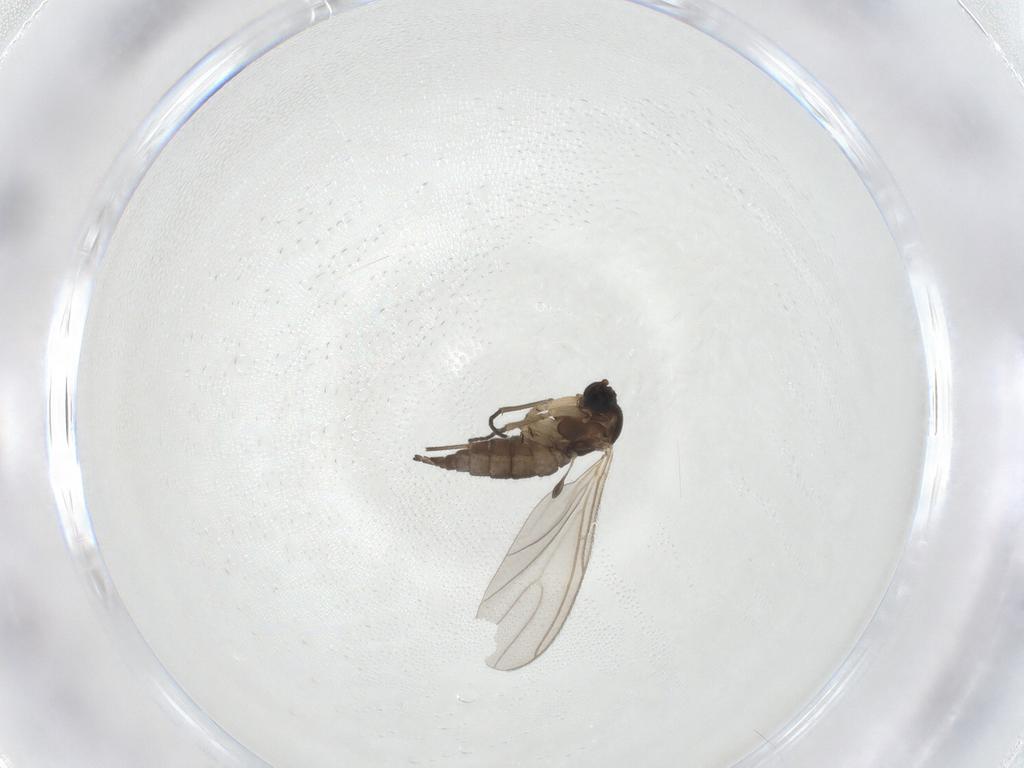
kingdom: Animalia
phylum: Arthropoda
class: Insecta
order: Diptera
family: Sciaridae
